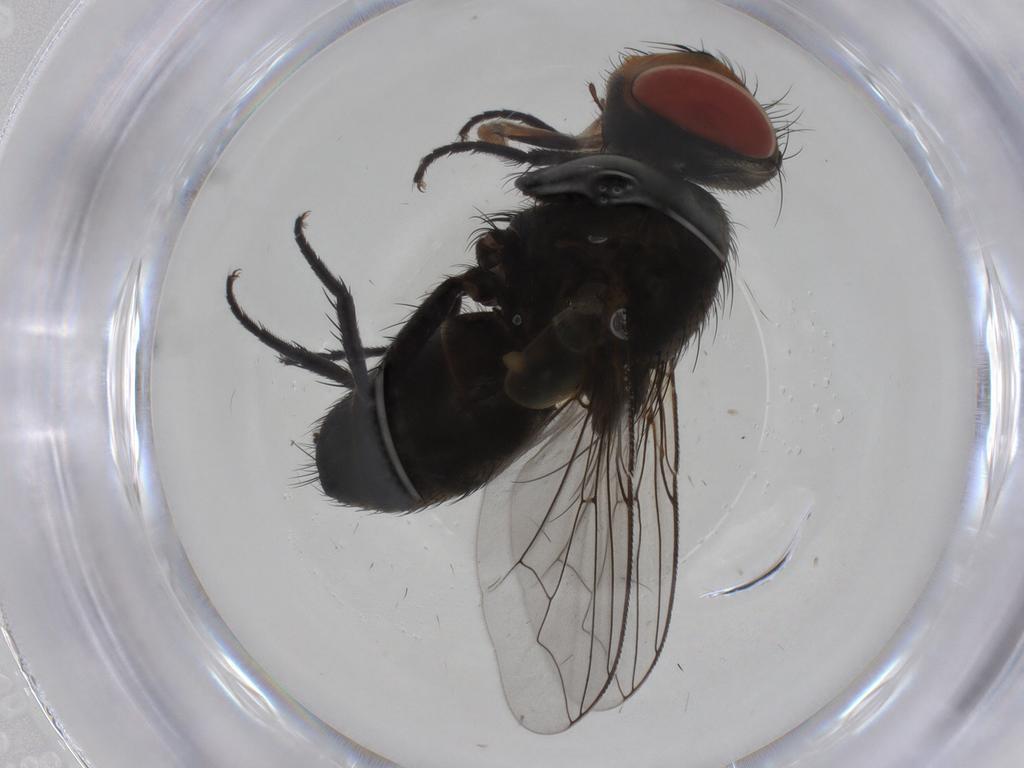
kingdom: Animalia
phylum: Arthropoda
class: Insecta
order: Diptera
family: Sarcophagidae
